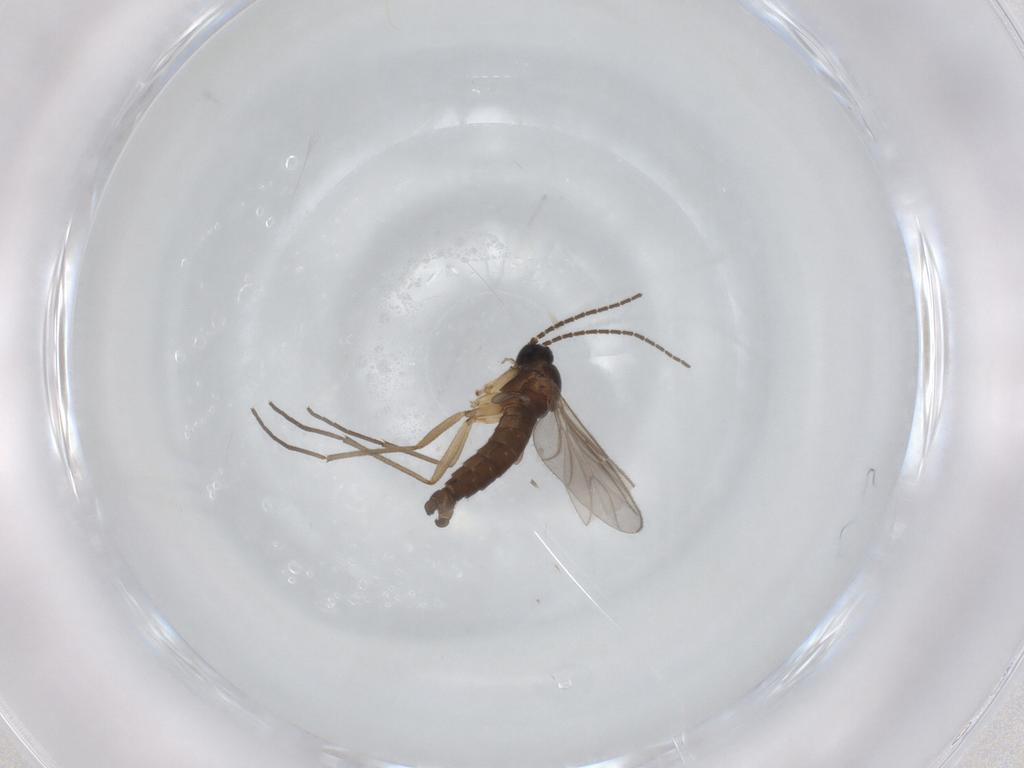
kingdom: Animalia
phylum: Arthropoda
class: Insecta
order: Diptera
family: Sciaridae
